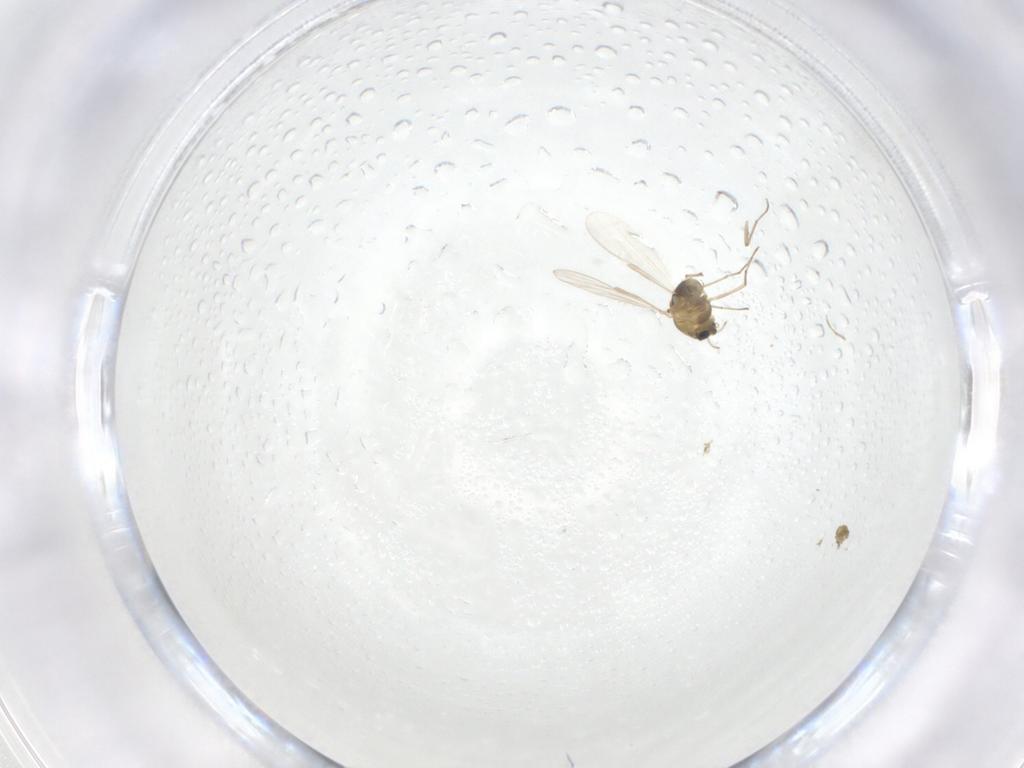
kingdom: Animalia
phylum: Arthropoda
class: Insecta
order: Diptera
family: Chironomidae
